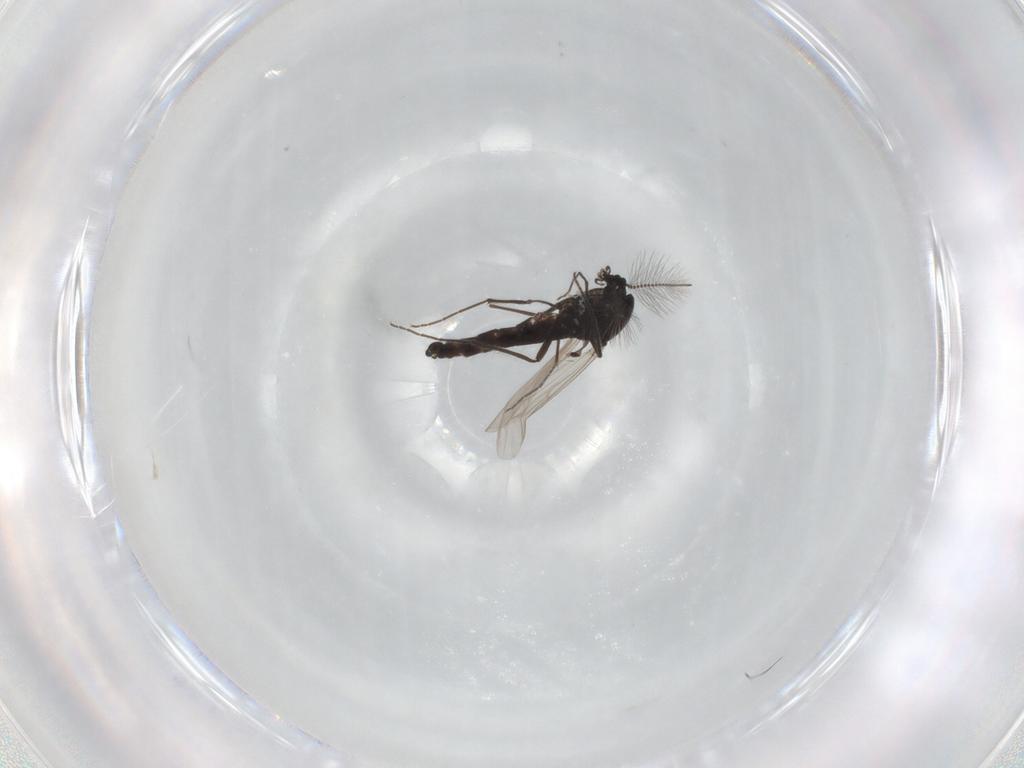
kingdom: Animalia
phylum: Arthropoda
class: Insecta
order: Diptera
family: Chironomidae
